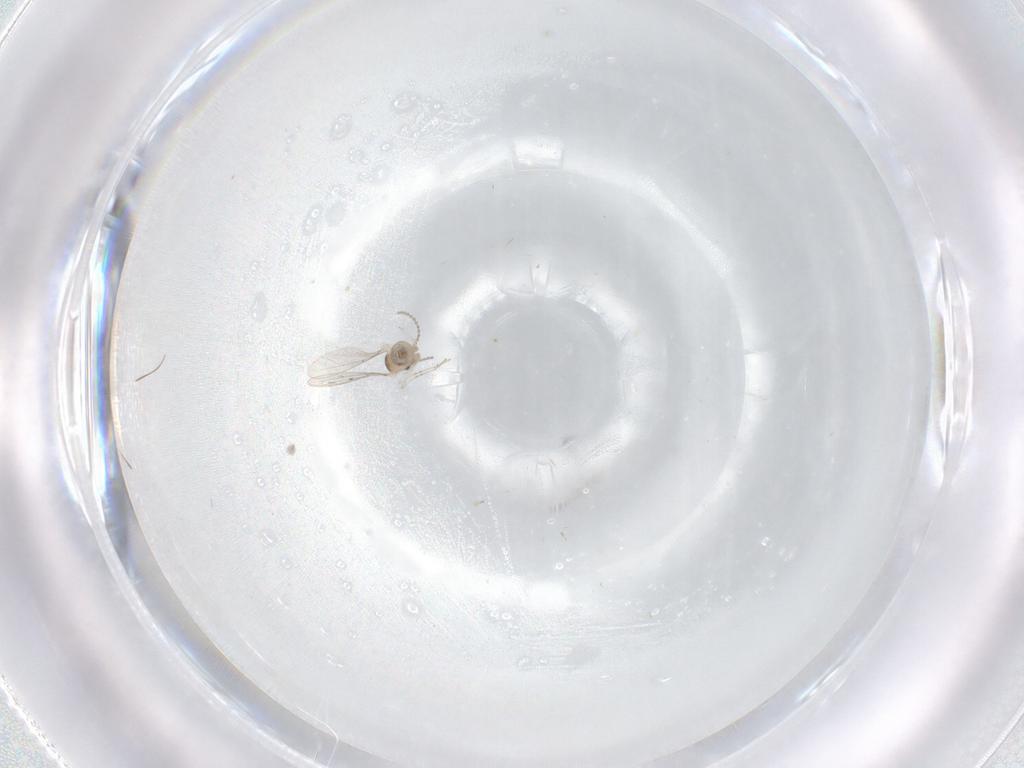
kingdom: Animalia
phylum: Arthropoda
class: Insecta
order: Diptera
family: Cecidomyiidae
